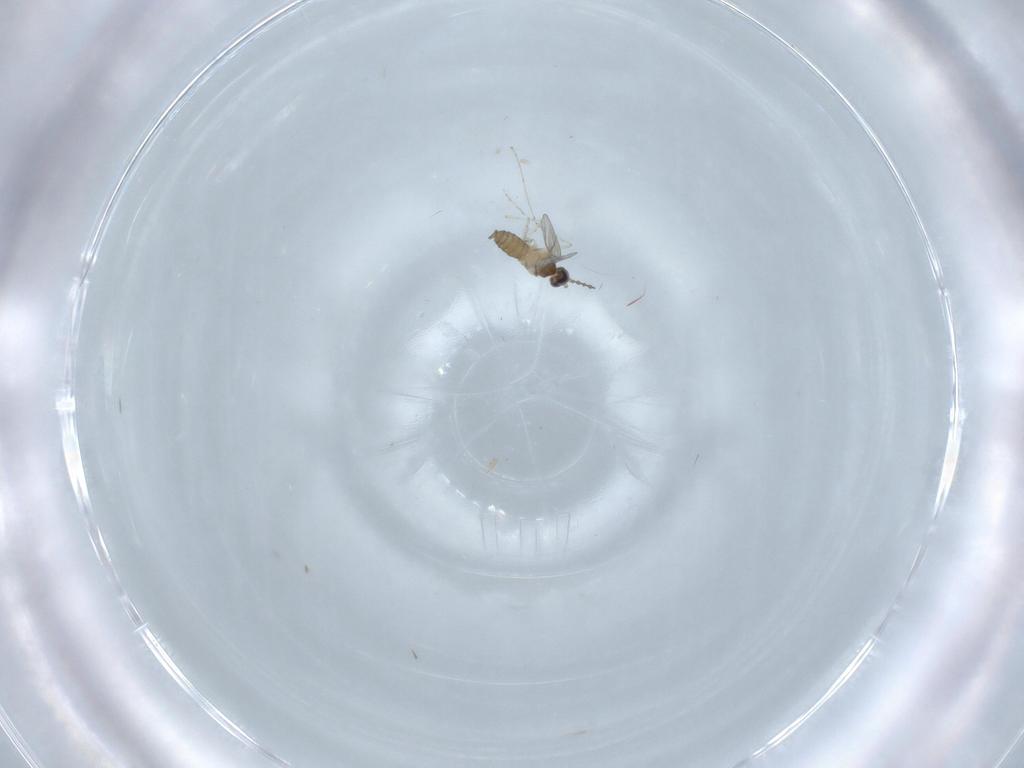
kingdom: Animalia
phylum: Arthropoda
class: Insecta
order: Diptera
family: Cecidomyiidae
